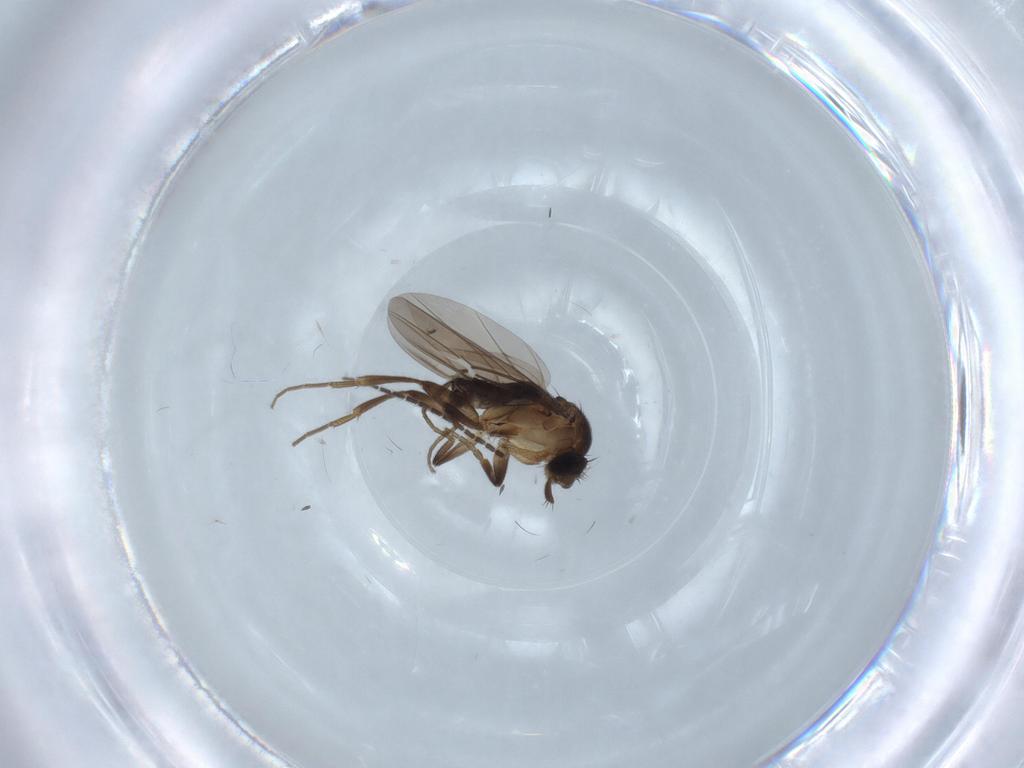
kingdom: Animalia
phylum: Arthropoda
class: Insecta
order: Diptera
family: Phoridae
